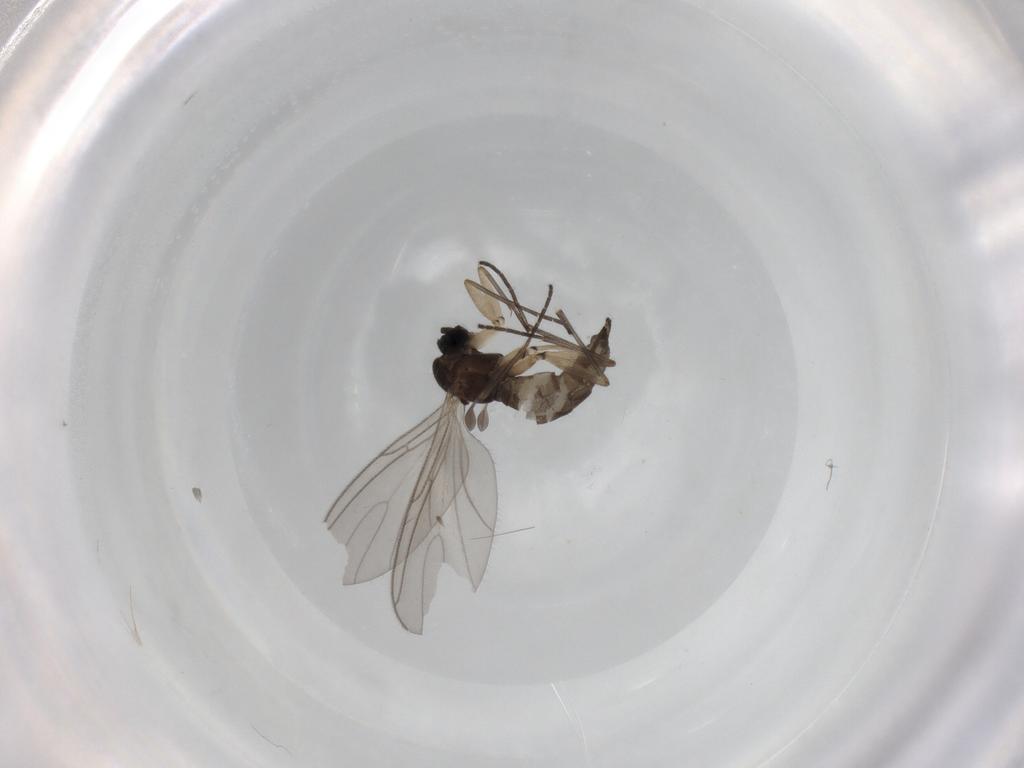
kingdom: Animalia
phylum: Arthropoda
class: Insecta
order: Diptera
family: Sciaridae
